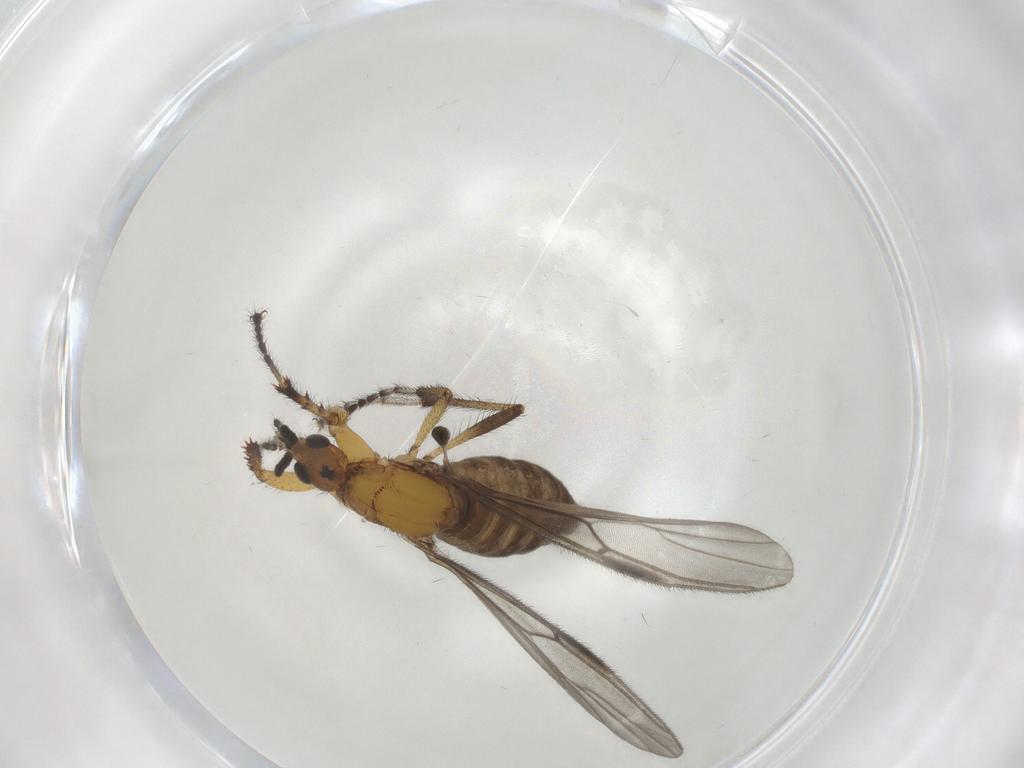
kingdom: Animalia
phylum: Arthropoda
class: Insecta
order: Diptera
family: Bibionidae
